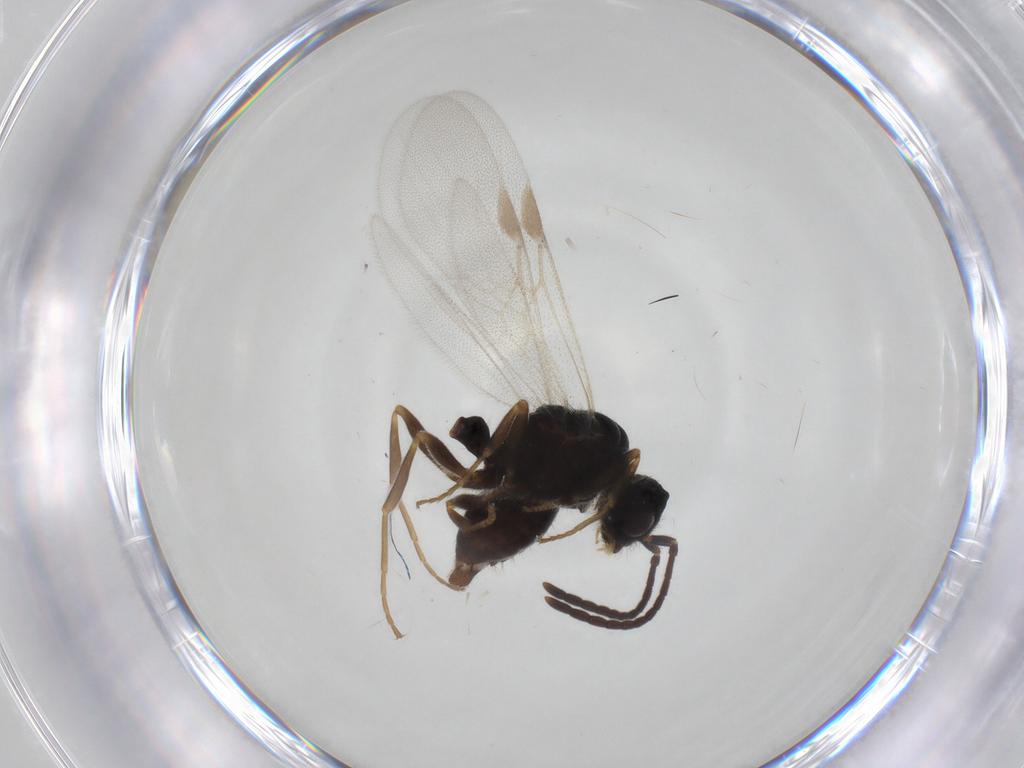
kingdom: Animalia
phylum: Arthropoda
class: Insecta
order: Hymenoptera
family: Formicidae
